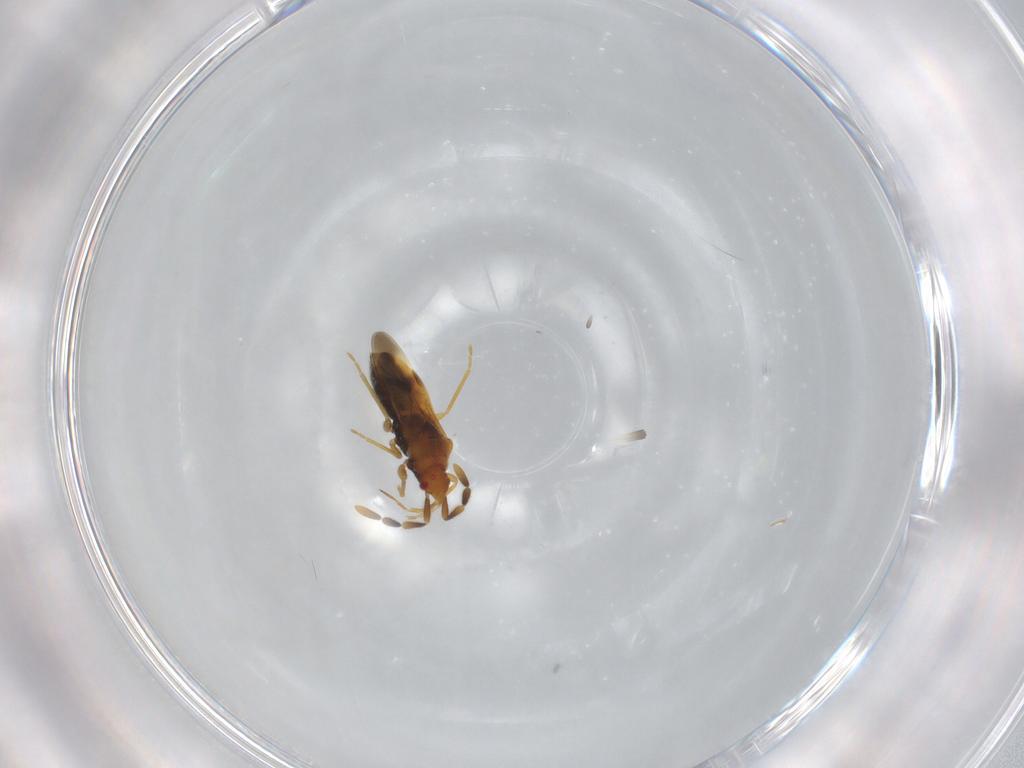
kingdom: Animalia
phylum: Arthropoda
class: Insecta
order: Hemiptera
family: Rhyparochromidae
